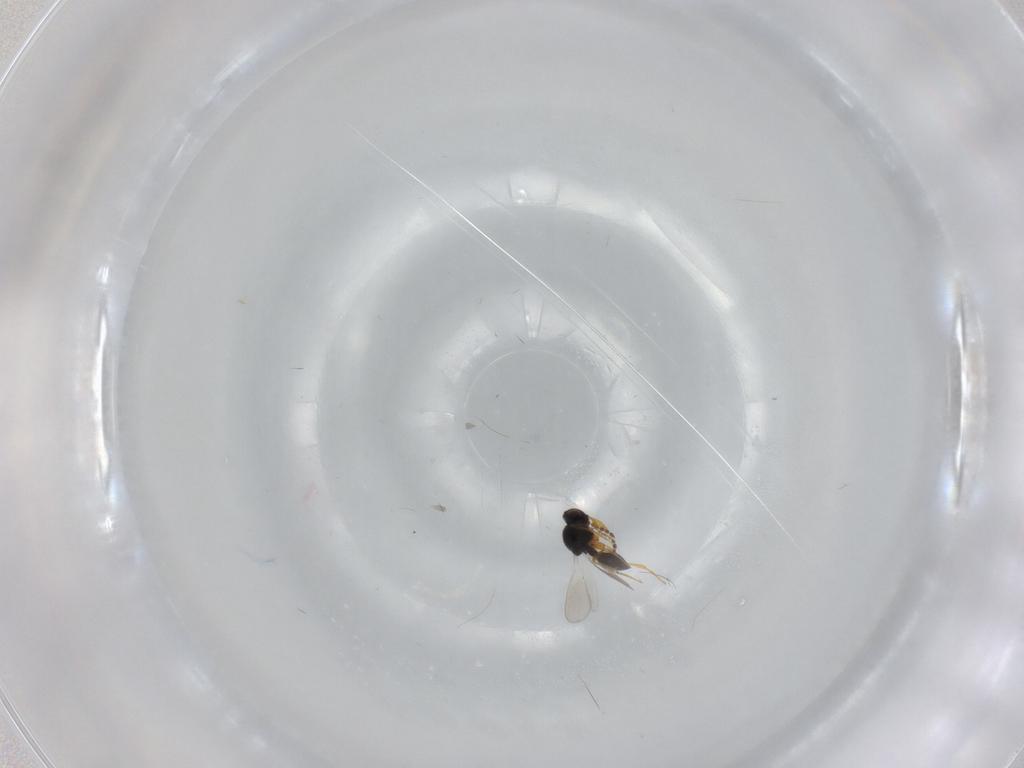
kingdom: Animalia
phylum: Arthropoda
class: Insecta
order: Hymenoptera
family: Platygastridae
